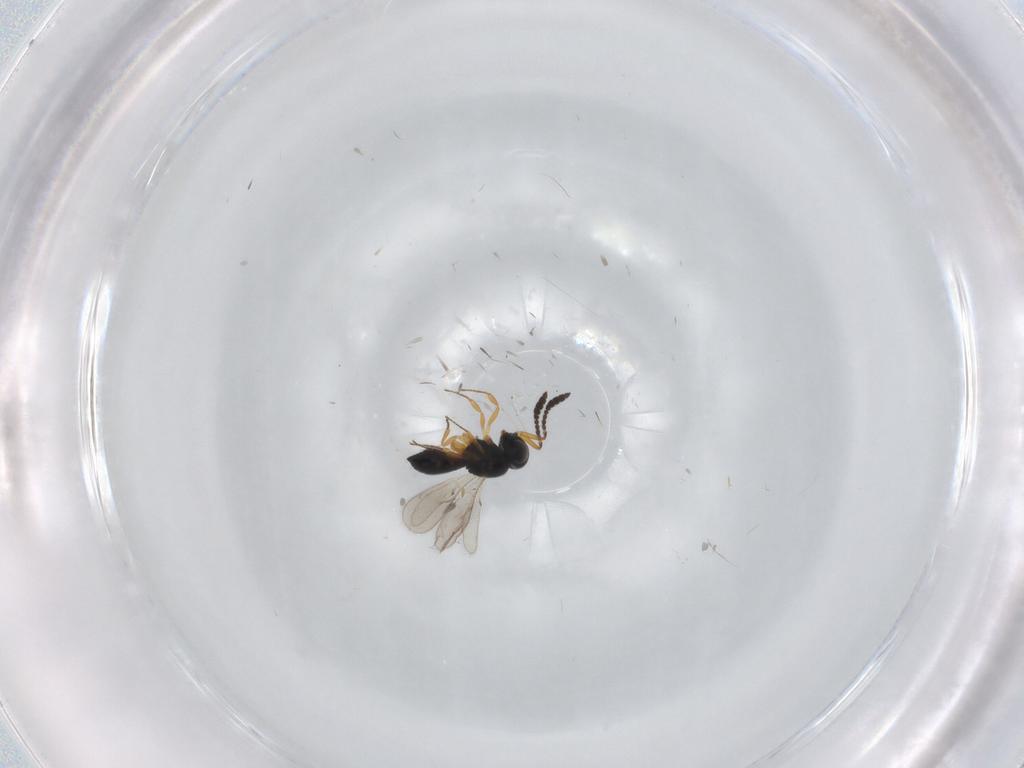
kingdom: Animalia
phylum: Arthropoda
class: Insecta
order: Hymenoptera
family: Scelionidae
